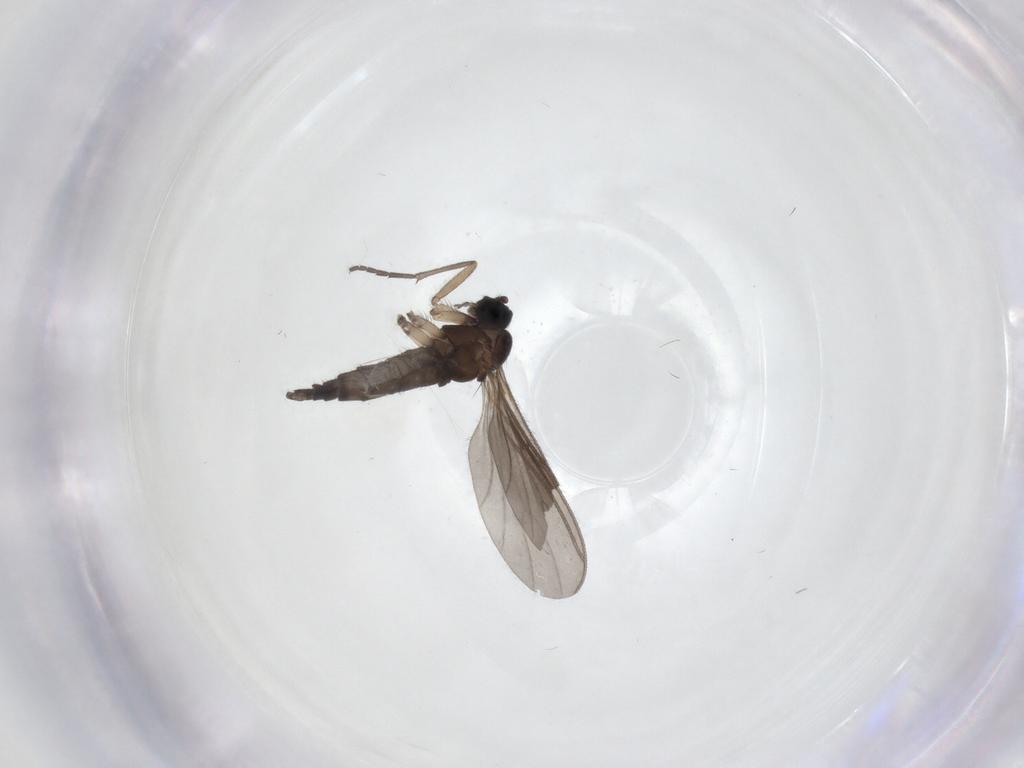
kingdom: Animalia
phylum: Arthropoda
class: Insecta
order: Diptera
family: Sciaridae
